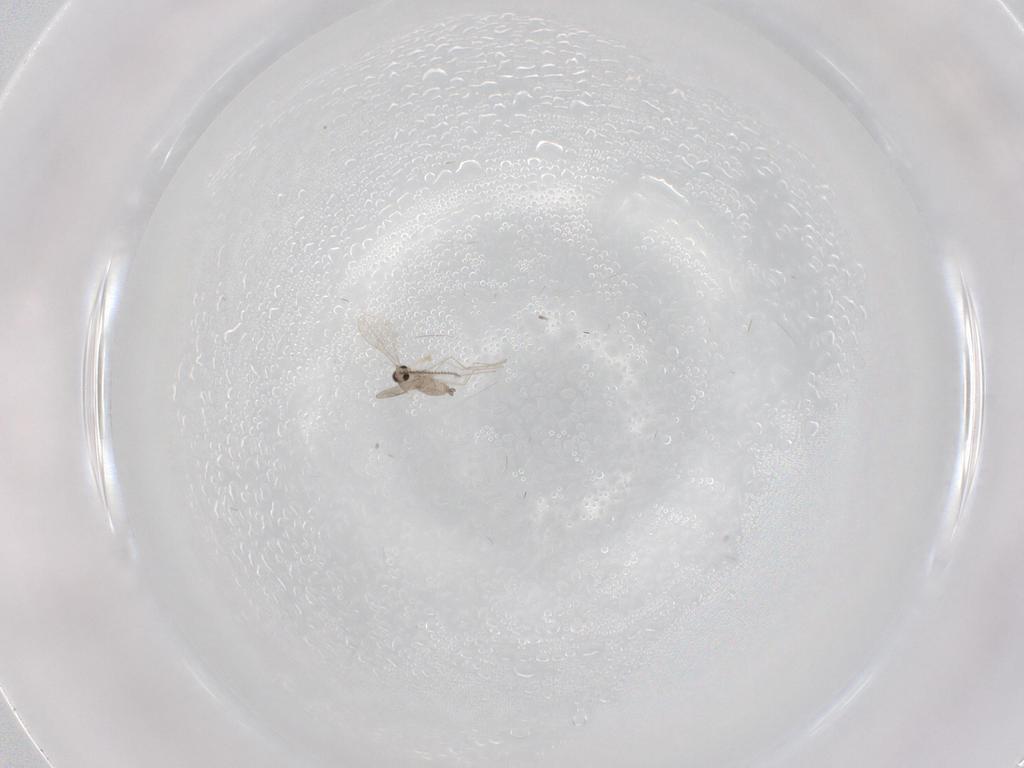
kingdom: Animalia
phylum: Arthropoda
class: Insecta
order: Diptera
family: Cecidomyiidae
